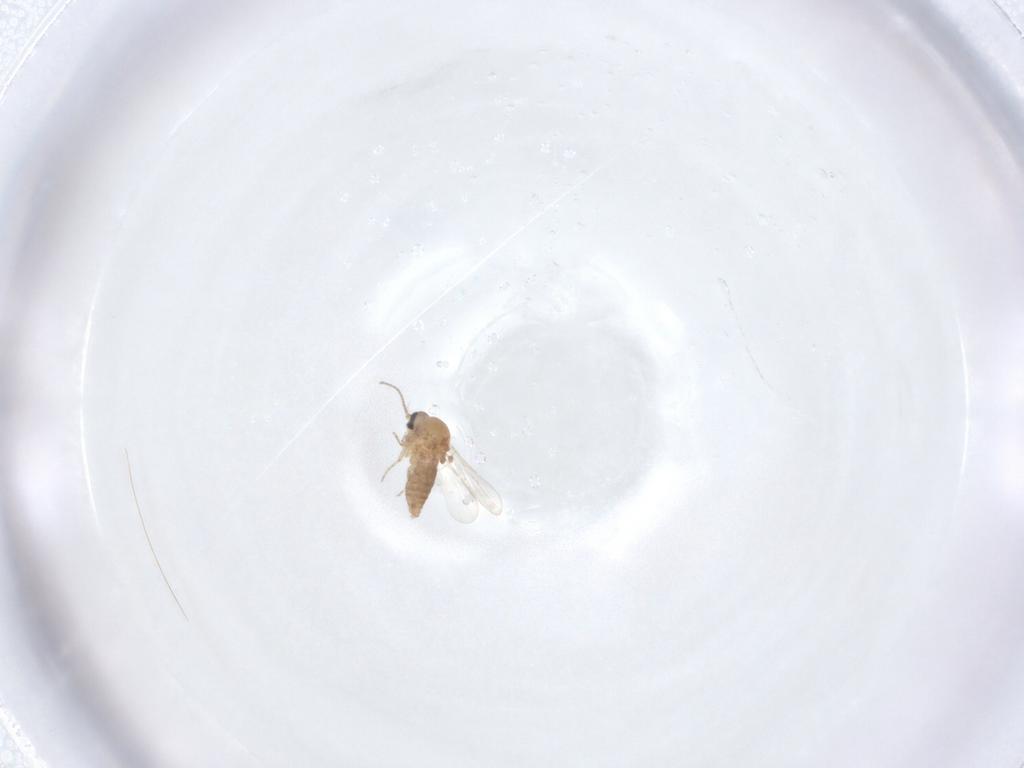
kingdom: Animalia
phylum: Arthropoda
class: Insecta
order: Diptera
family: Ceratopogonidae
